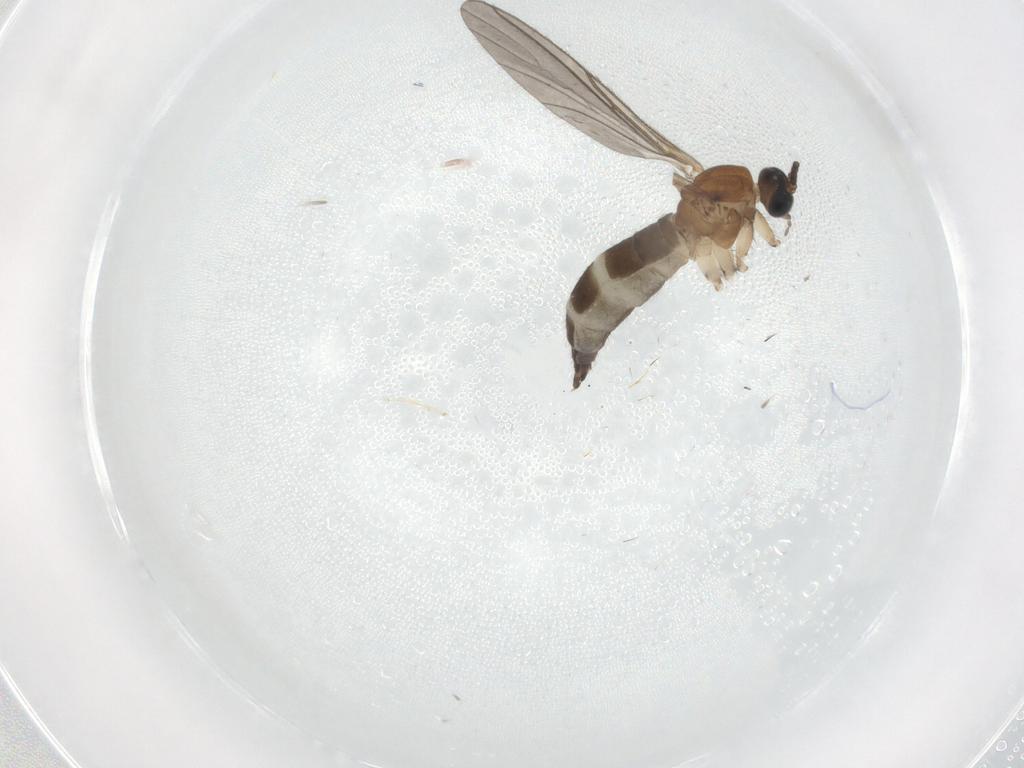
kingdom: Animalia
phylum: Arthropoda
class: Insecta
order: Diptera
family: Sciaridae
